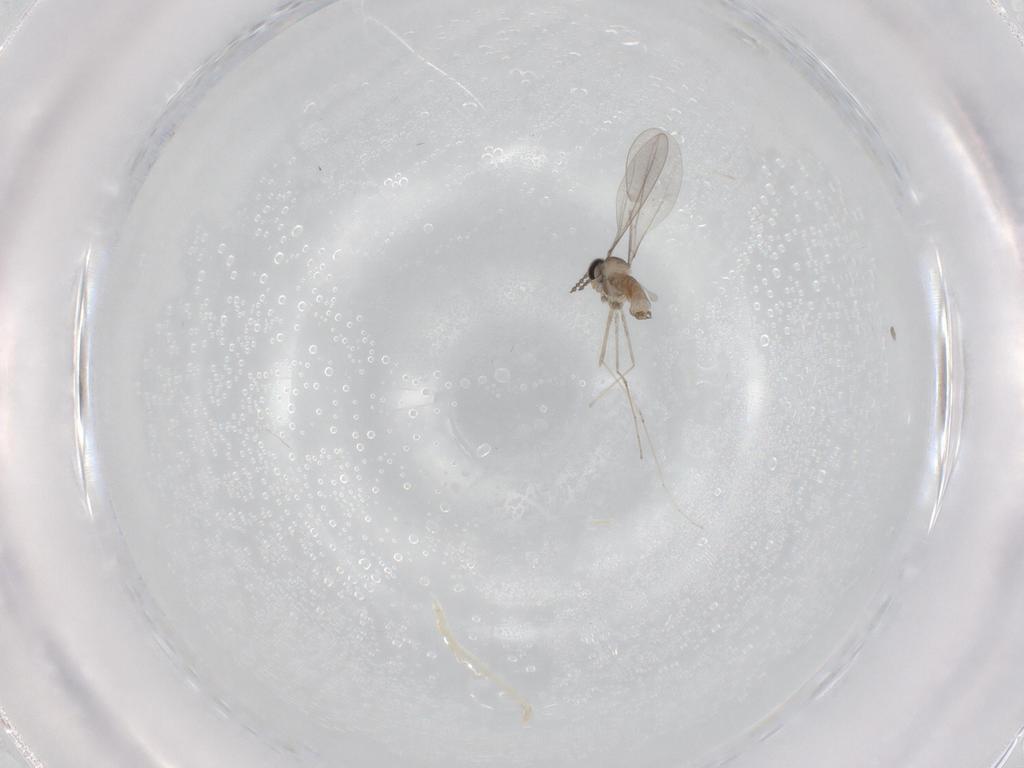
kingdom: Animalia
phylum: Arthropoda
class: Insecta
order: Diptera
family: Cecidomyiidae
